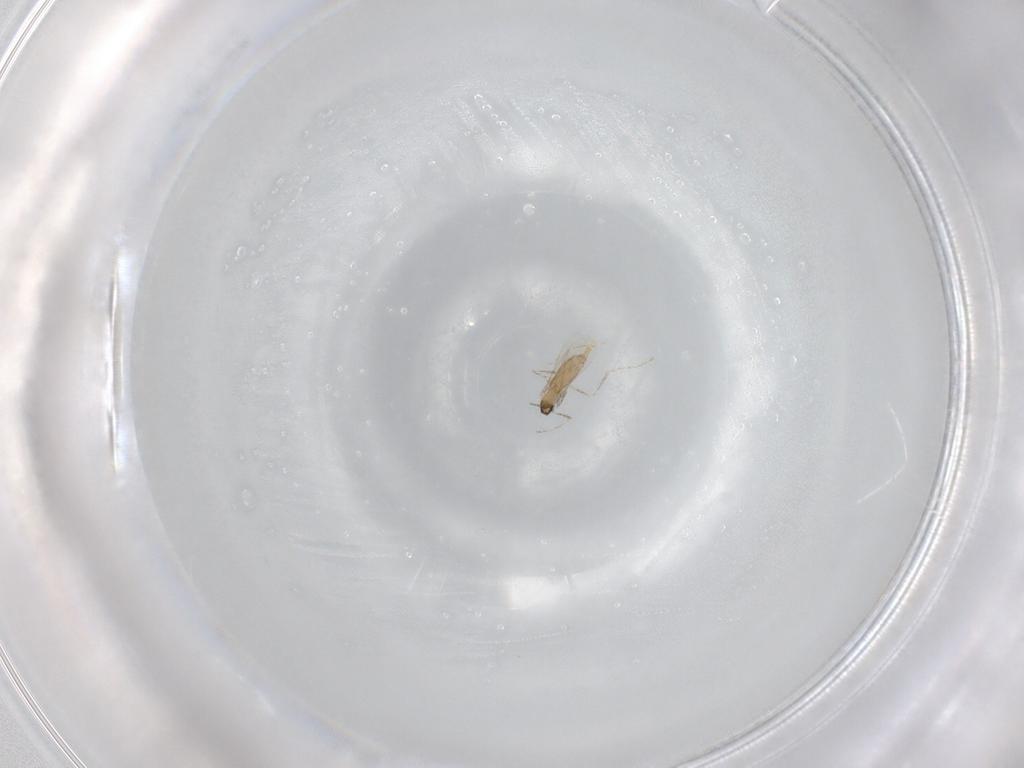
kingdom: Animalia
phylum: Arthropoda
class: Insecta
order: Diptera
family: Cecidomyiidae
